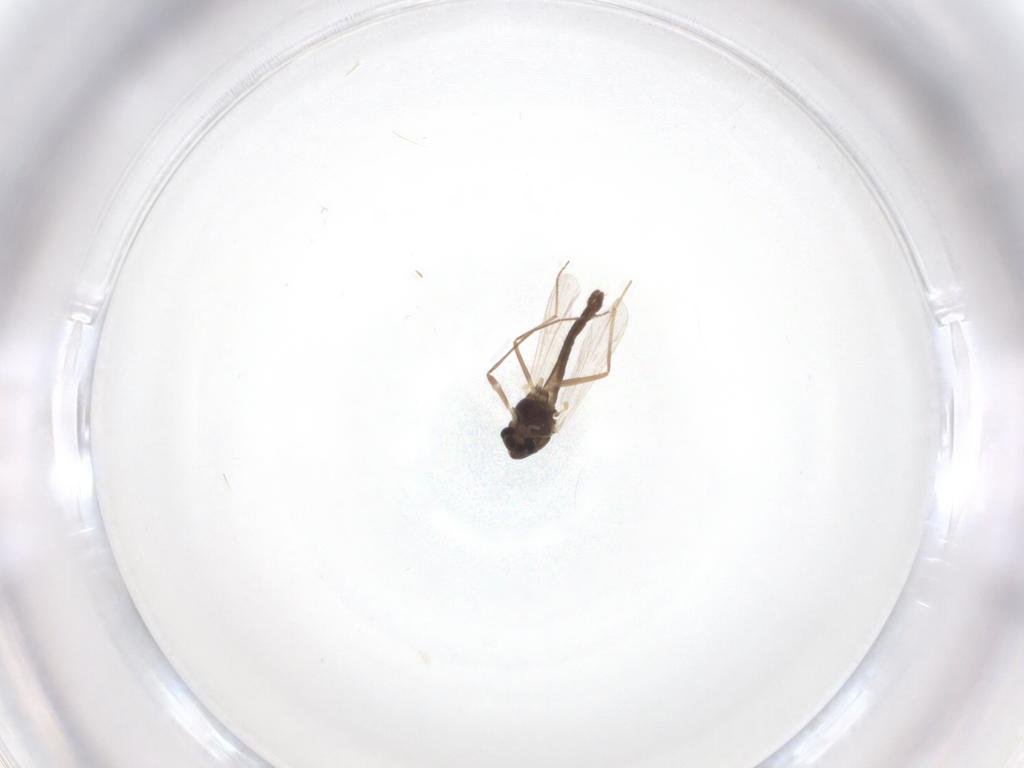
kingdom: Animalia
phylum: Arthropoda
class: Insecta
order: Diptera
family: Chironomidae
